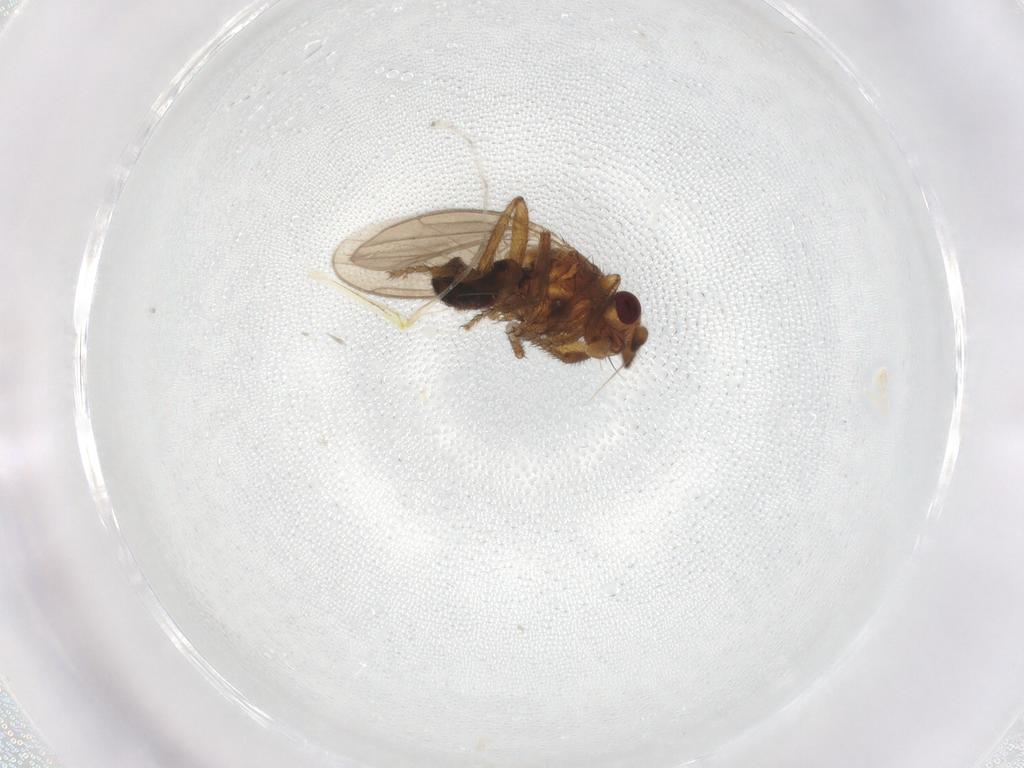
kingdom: Animalia
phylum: Arthropoda
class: Insecta
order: Diptera
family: Sphaeroceridae
